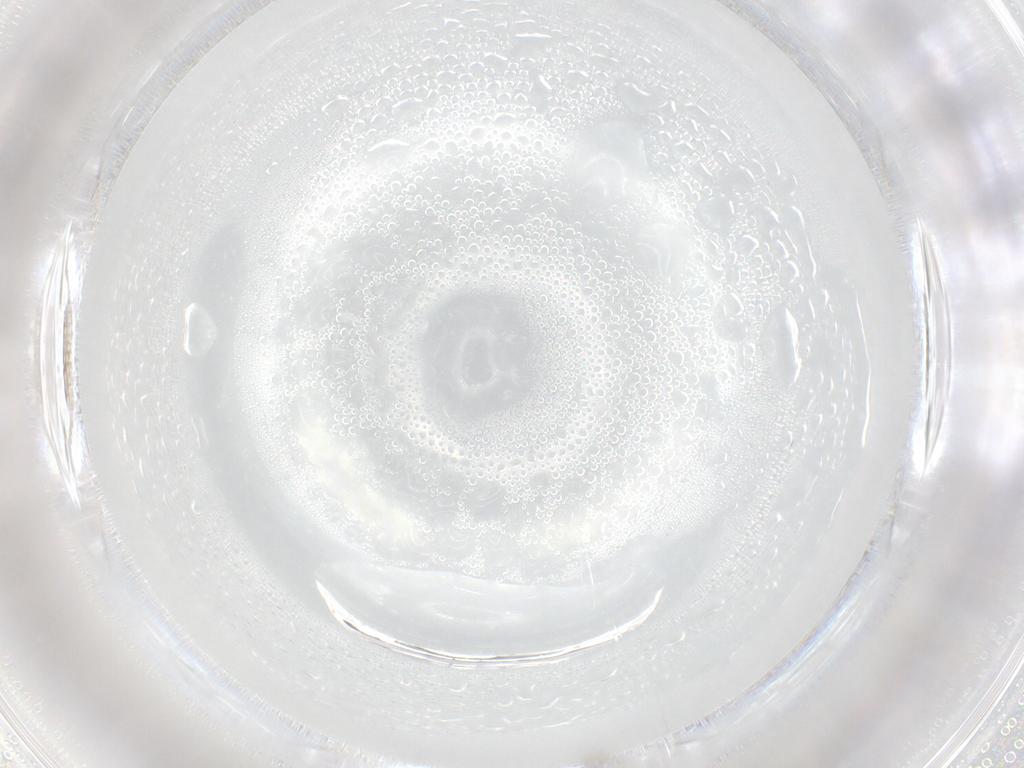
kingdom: Animalia
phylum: Arthropoda
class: Insecta
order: Diptera
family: Cecidomyiidae
